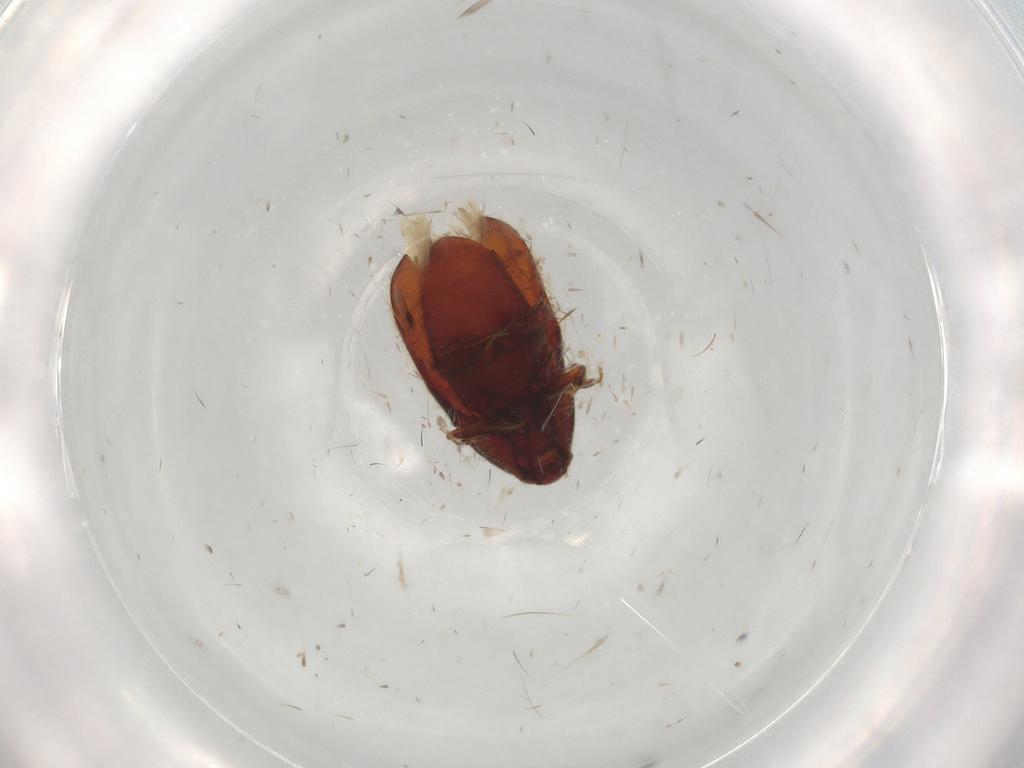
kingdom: Animalia
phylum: Arthropoda
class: Insecta
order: Coleoptera
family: Throscidae
